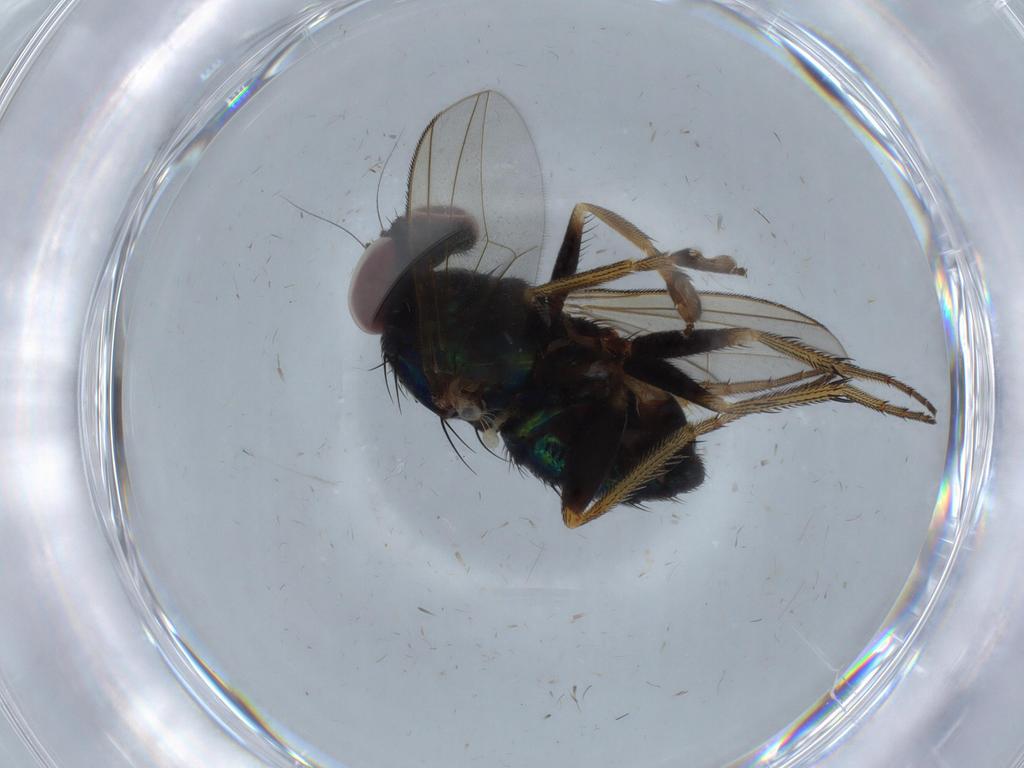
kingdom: Animalia
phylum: Arthropoda
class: Insecta
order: Diptera
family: Dolichopodidae
